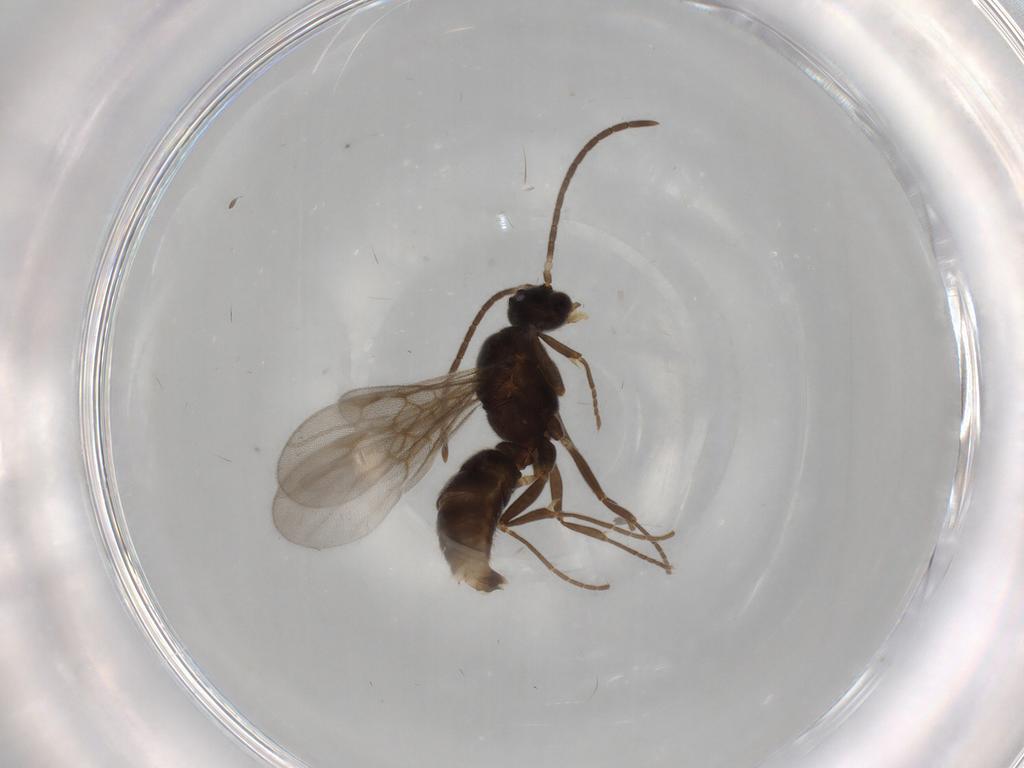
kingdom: Animalia
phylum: Arthropoda
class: Insecta
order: Hymenoptera
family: Formicidae
